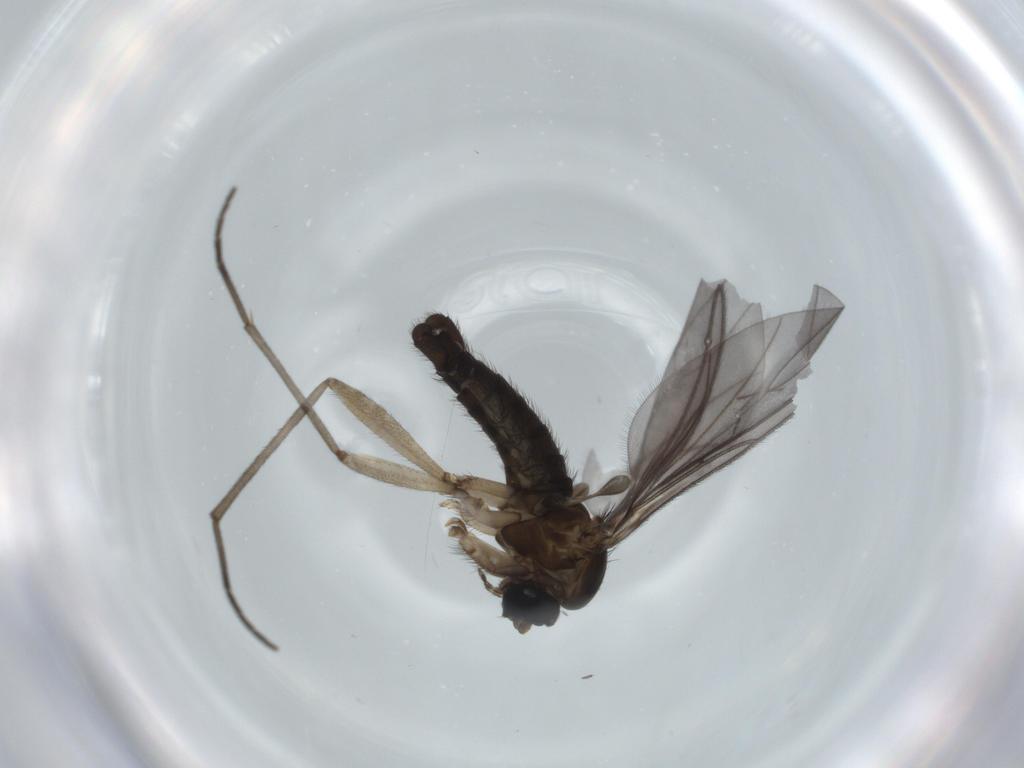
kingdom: Animalia
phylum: Arthropoda
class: Insecta
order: Diptera
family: Sciaridae
